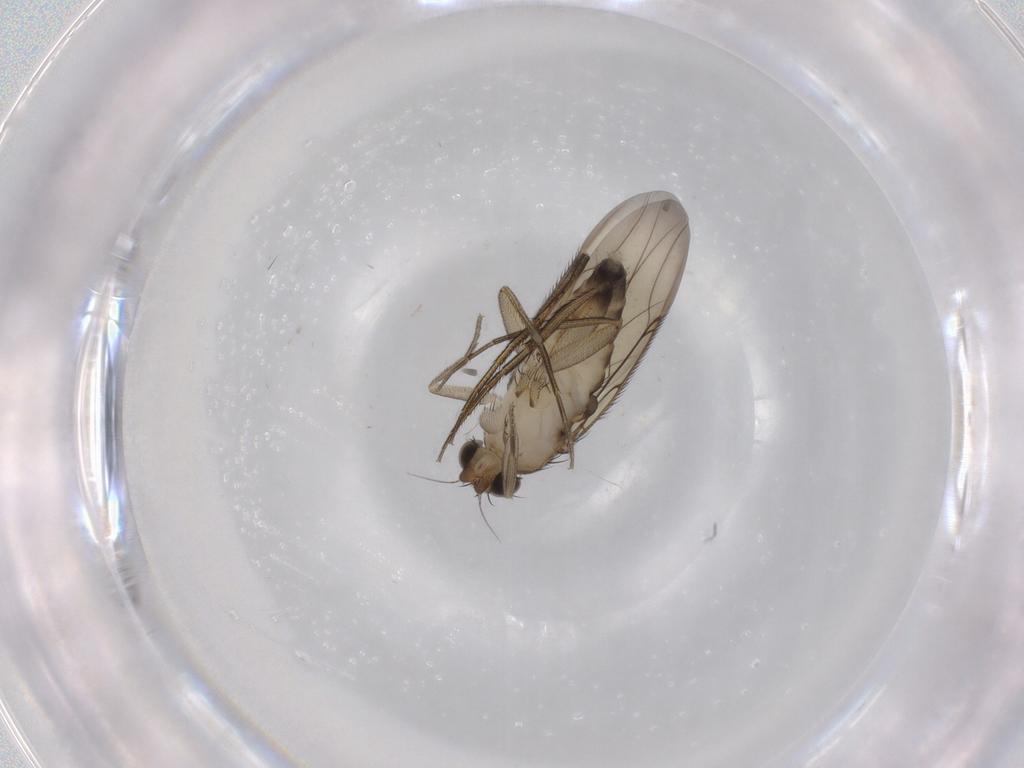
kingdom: Animalia
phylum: Arthropoda
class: Insecta
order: Diptera
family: Phoridae
